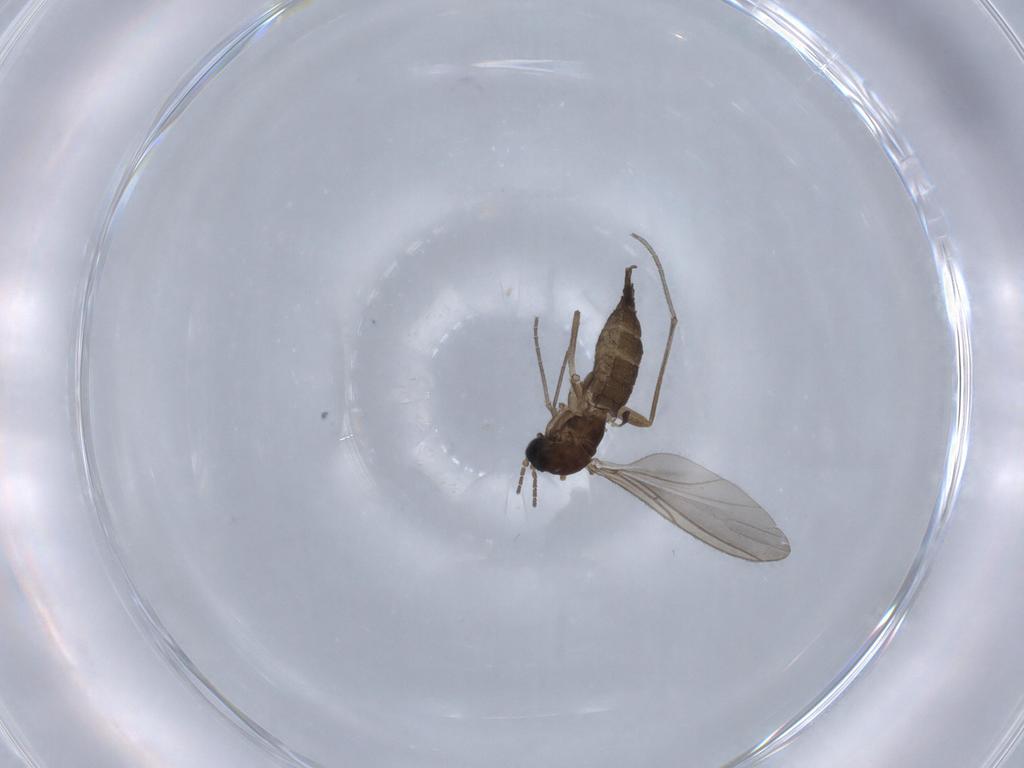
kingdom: Animalia
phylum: Arthropoda
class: Insecta
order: Diptera
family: Sciaridae
